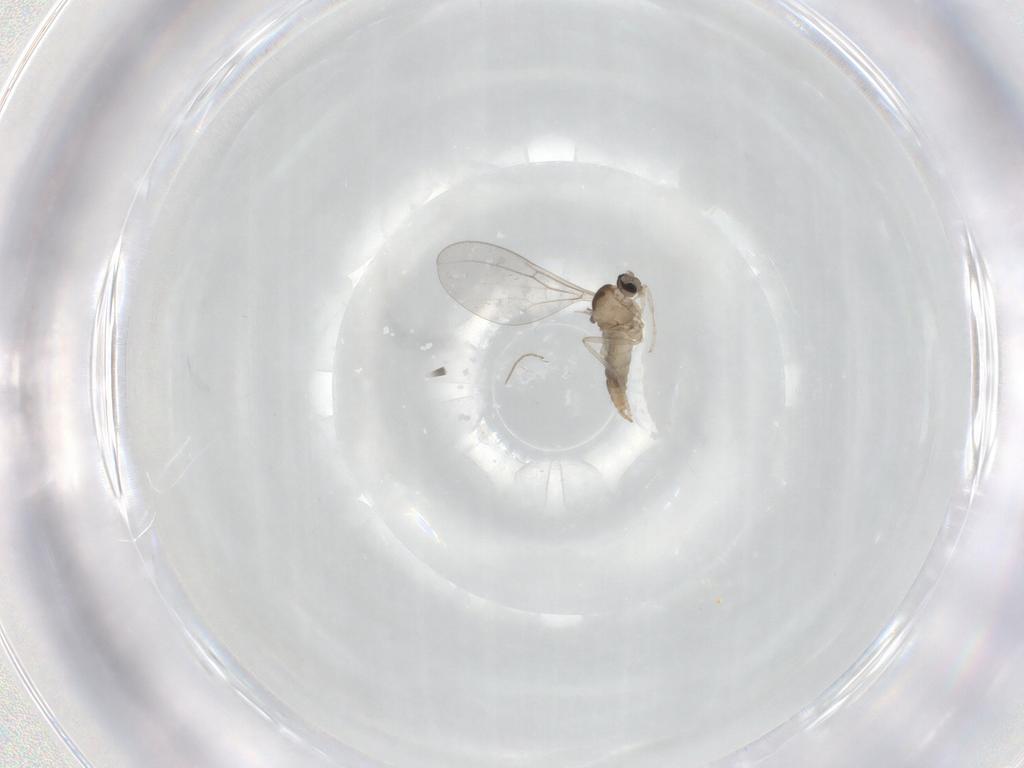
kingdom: Animalia
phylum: Arthropoda
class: Insecta
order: Diptera
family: Cecidomyiidae
